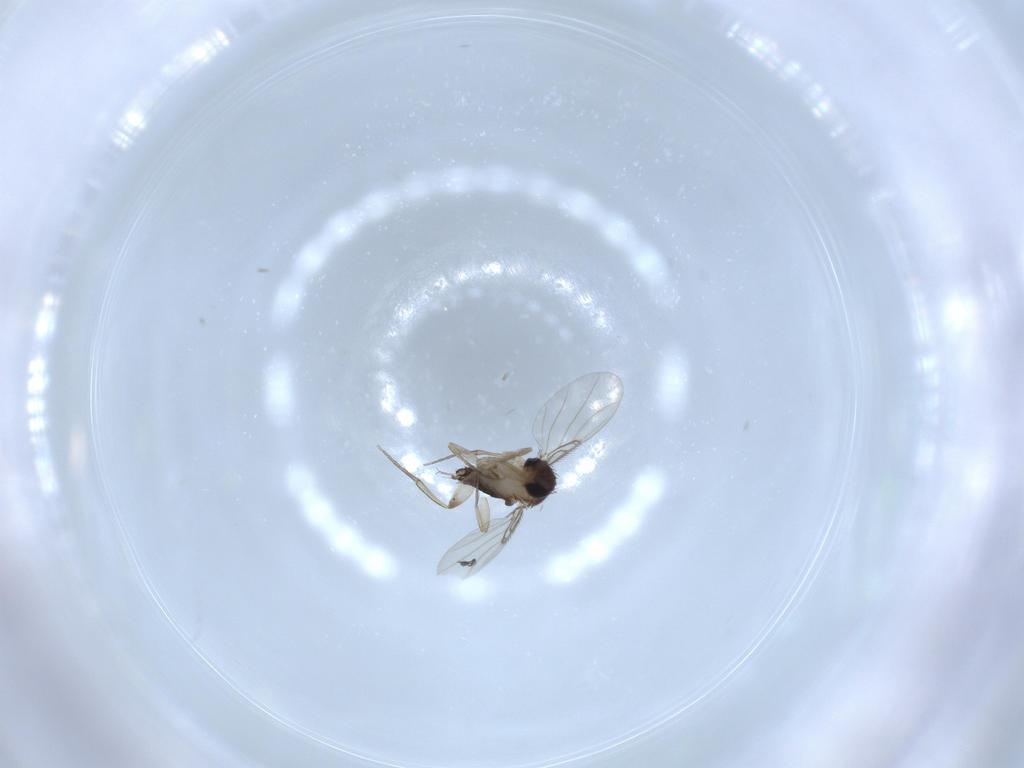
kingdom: Animalia
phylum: Arthropoda
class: Insecta
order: Diptera
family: Phoridae
